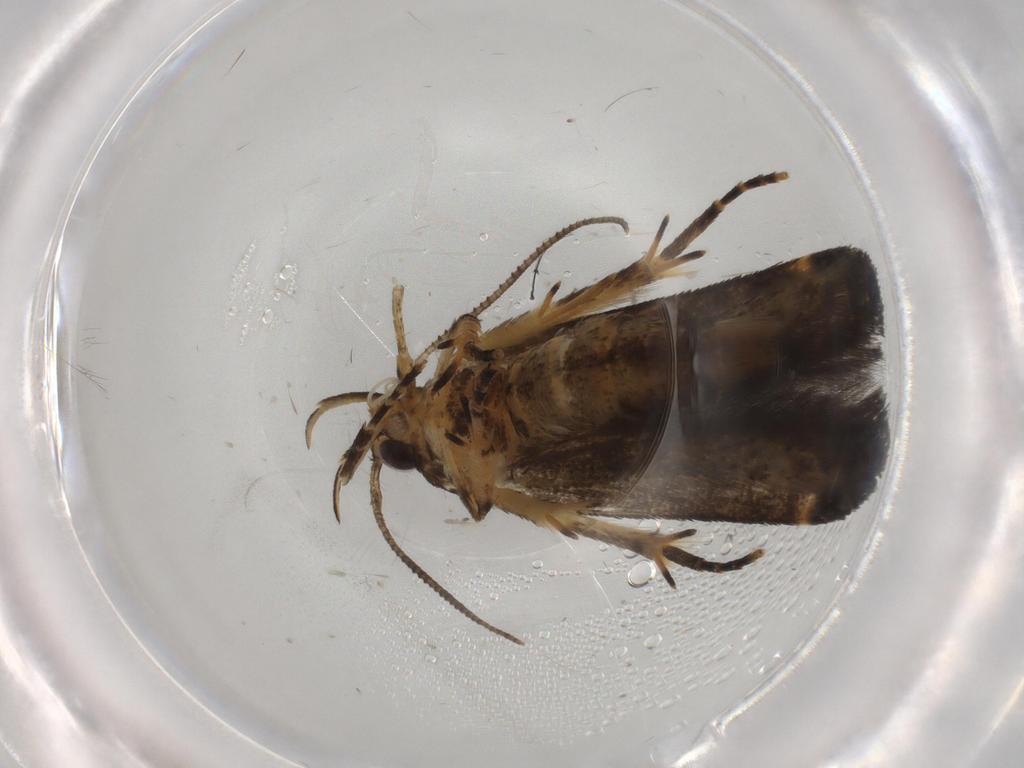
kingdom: Animalia
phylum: Arthropoda
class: Insecta
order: Lepidoptera
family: Cosmopterigidae
